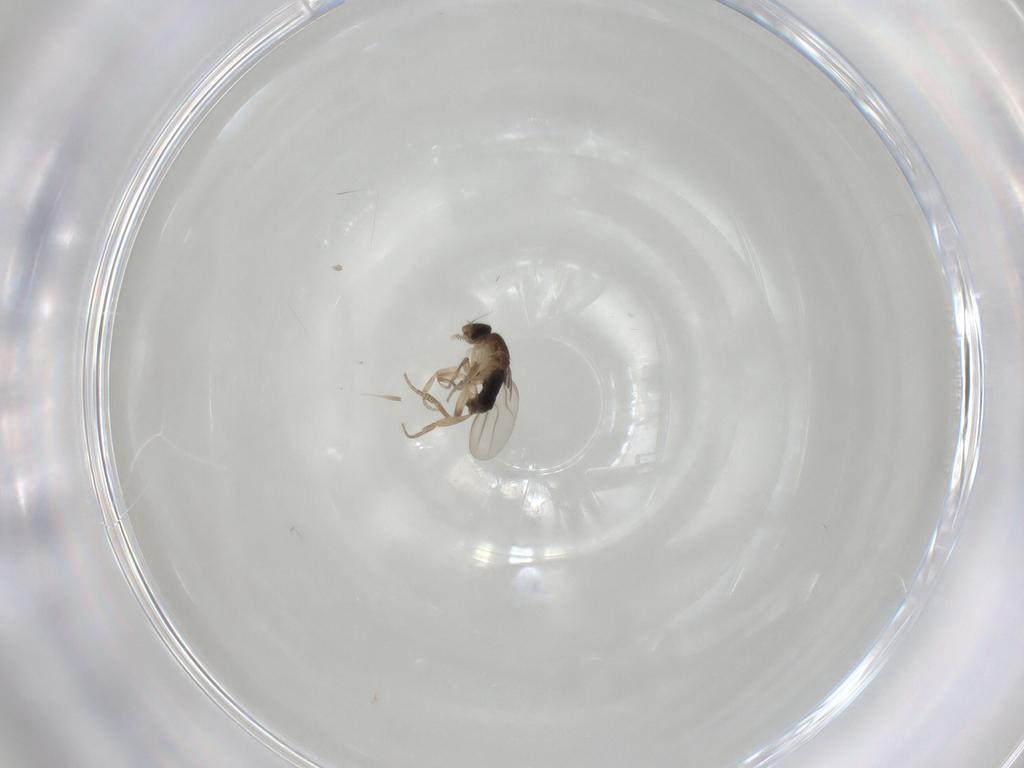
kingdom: Animalia
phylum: Arthropoda
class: Insecta
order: Diptera
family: Phoridae
